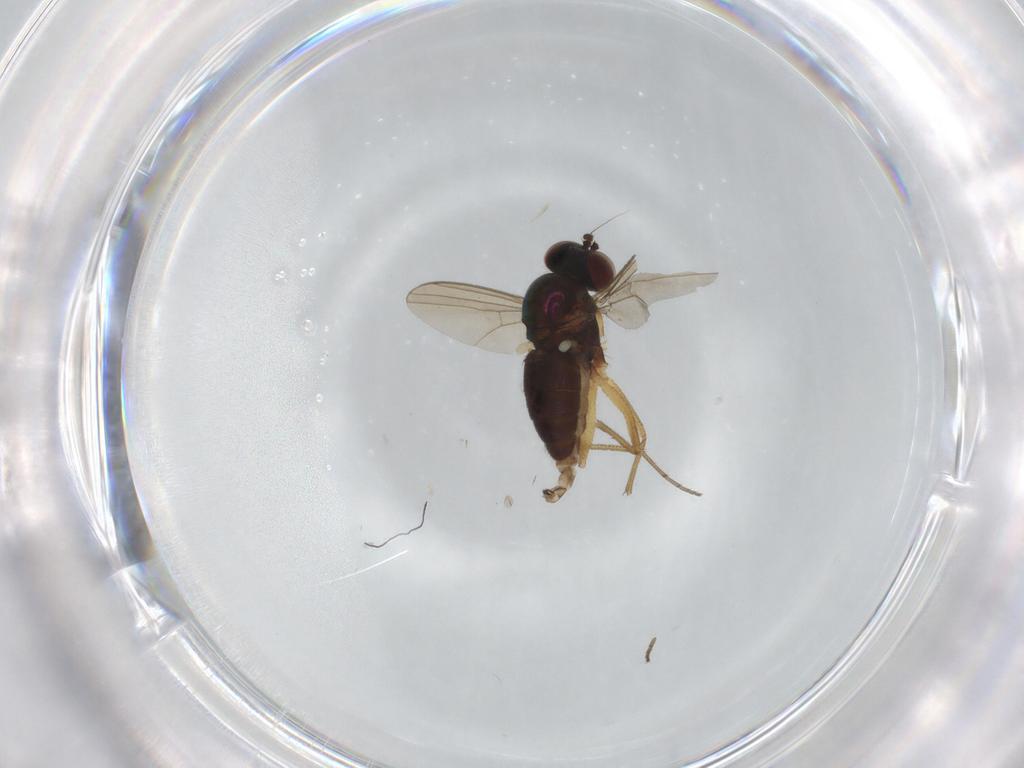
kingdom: Animalia
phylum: Arthropoda
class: Insecta
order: Diptera
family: Dolichopodidae
